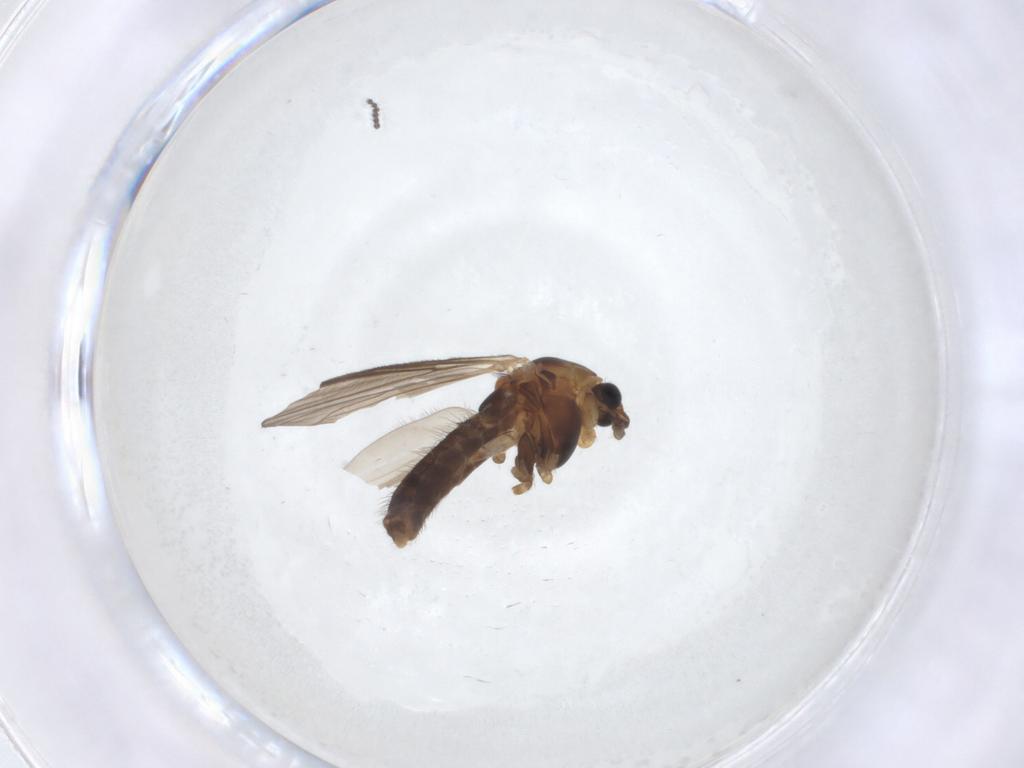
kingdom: Animalia
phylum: Arthropoda
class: Insecta
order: Diptera
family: Chironomidae
